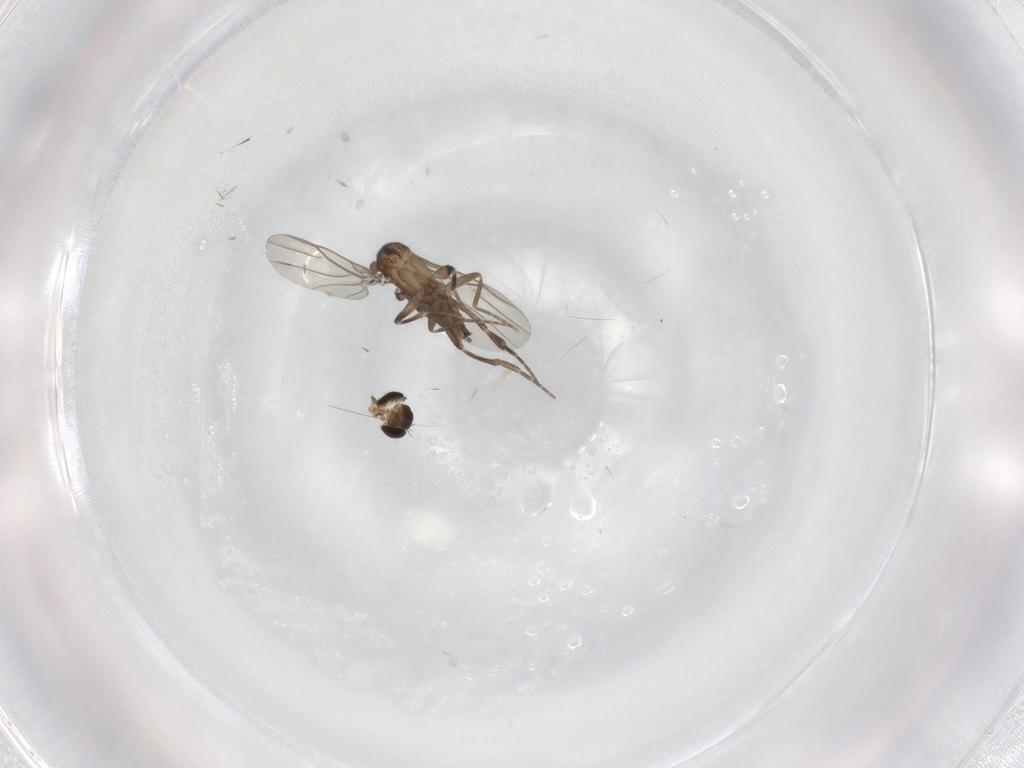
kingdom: Animalia
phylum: Arthropoda
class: Insecta
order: Diptera
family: Phoridae
